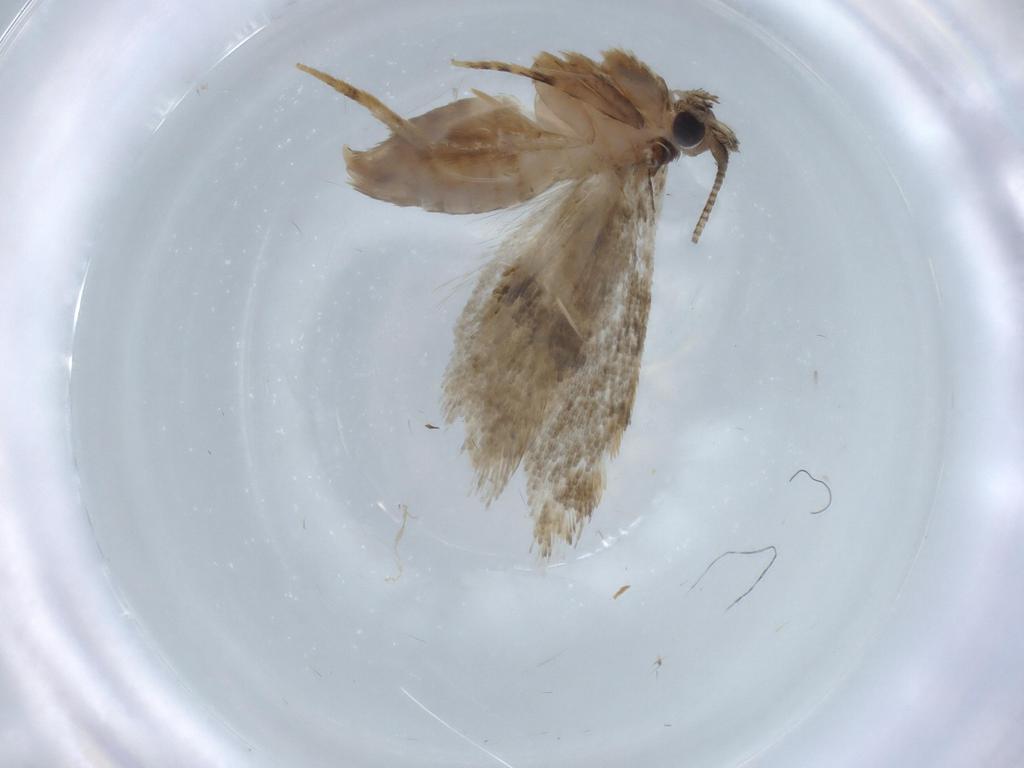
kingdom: Animalia
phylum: Arthropoda
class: Insecta
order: Lepidoptera
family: Tineidae
